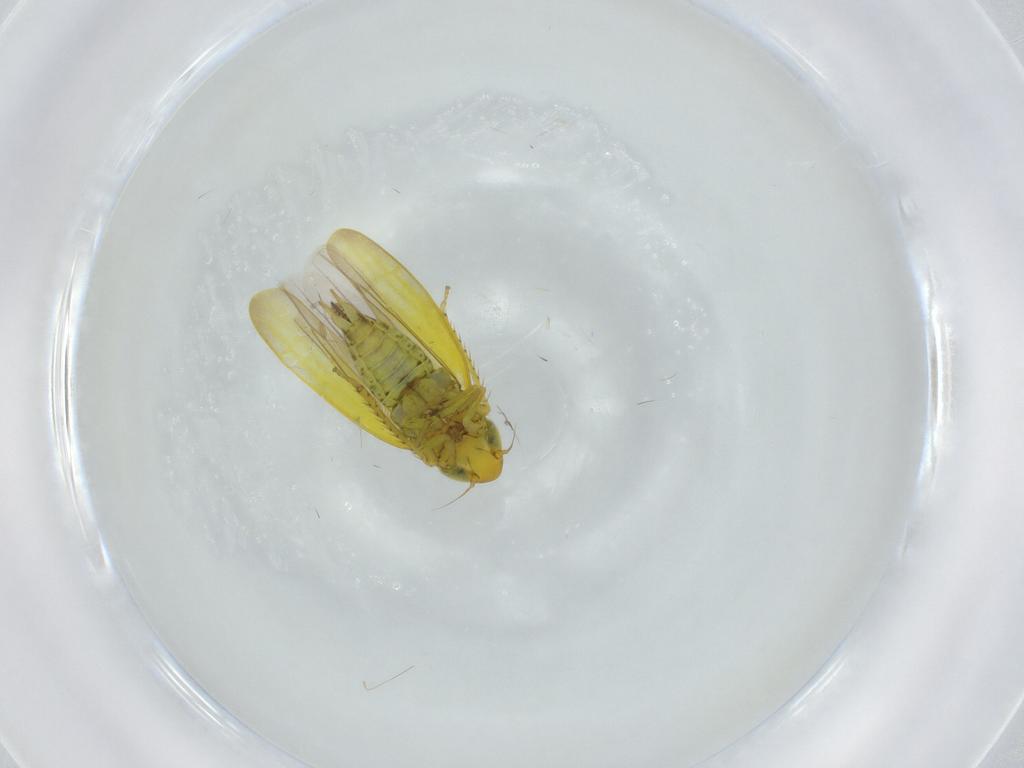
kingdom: Animalia
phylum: Arthropoda
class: Insecta
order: Hemiptera
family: Cicadellidae
